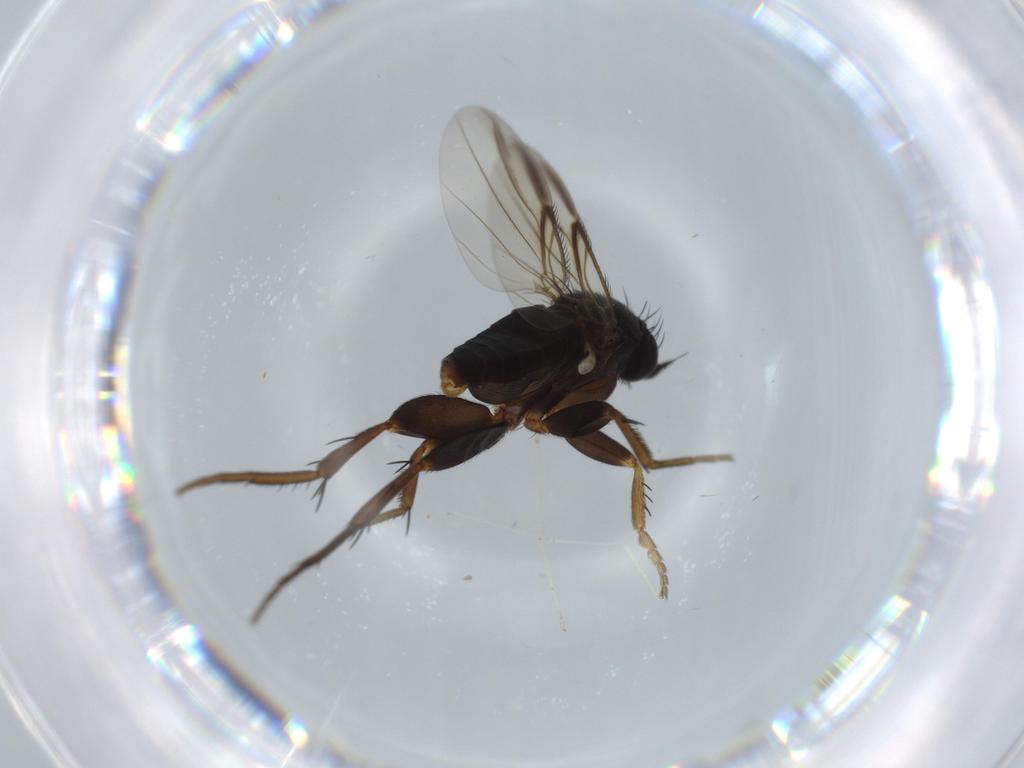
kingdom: Animalia
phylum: Arthropoda
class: Insecta
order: Diptera
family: Phoridae
